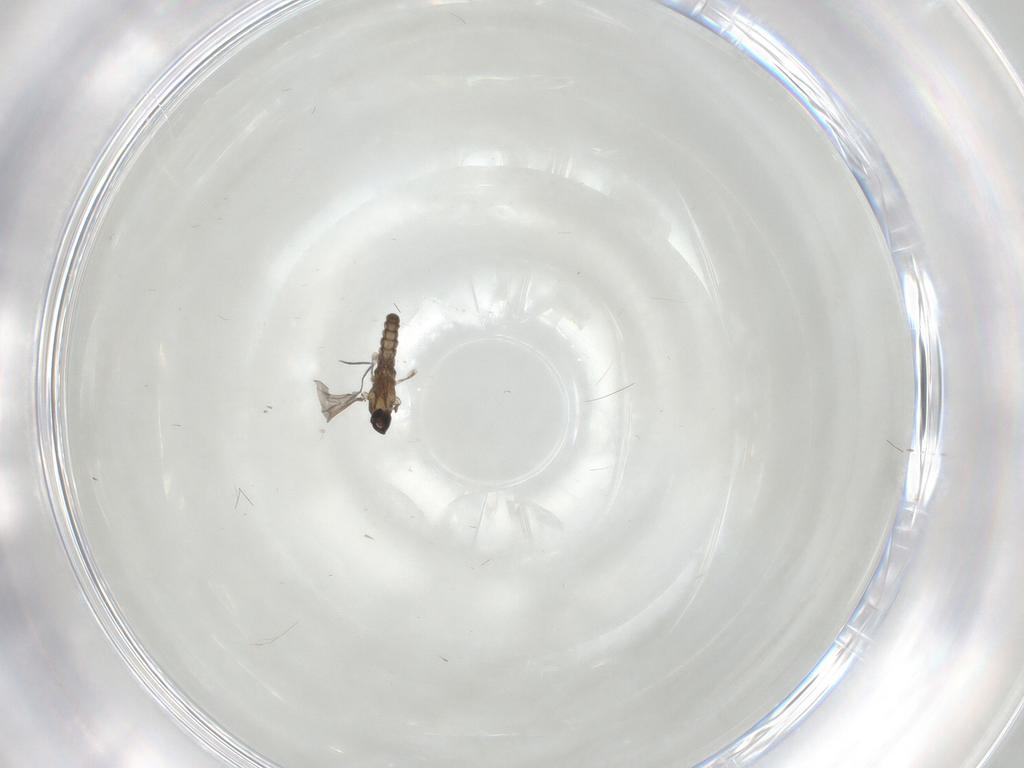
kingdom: Animalia
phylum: Arthropoda
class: Insecta
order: Diptera
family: Cecidomyiidae
